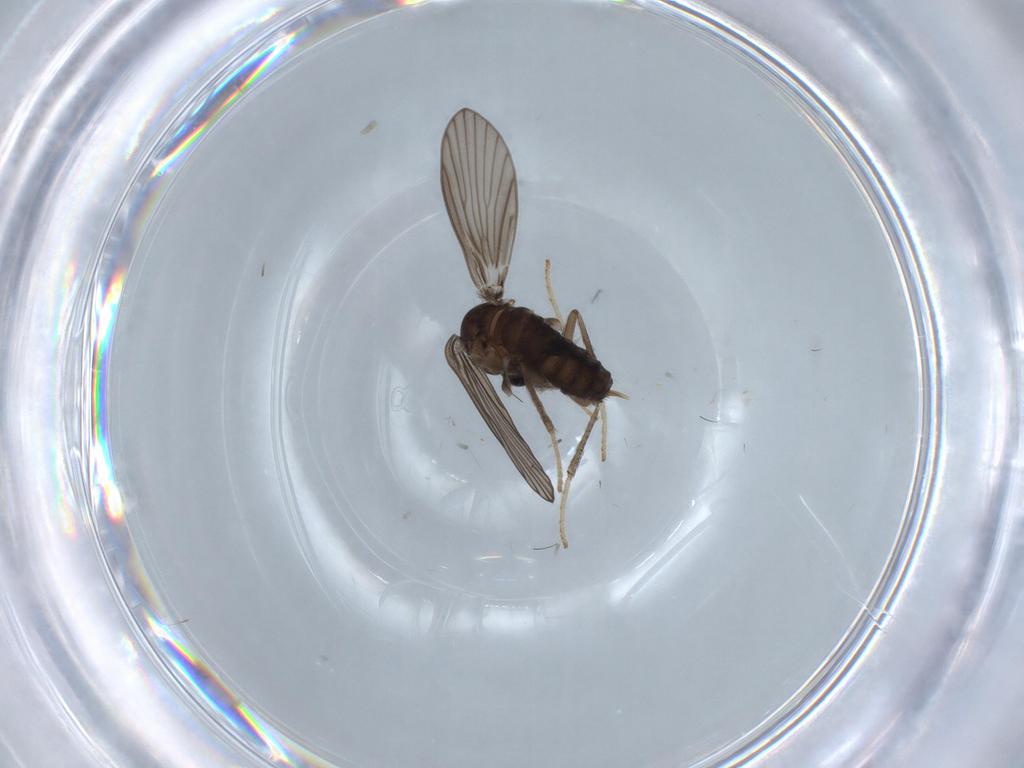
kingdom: Animalia
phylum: Arthropoda
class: Insecta
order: Diptera
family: Psychodidae
